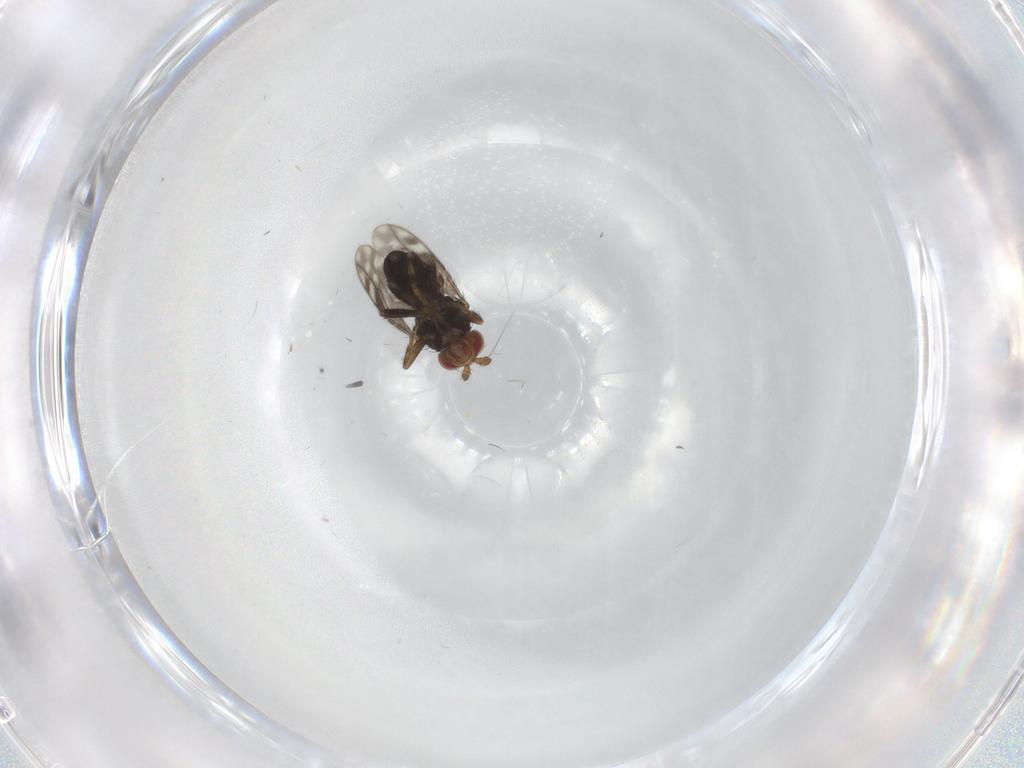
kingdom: Animalia
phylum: Arthropoda
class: Insecta
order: Diptera
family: Sphaeroceridae
